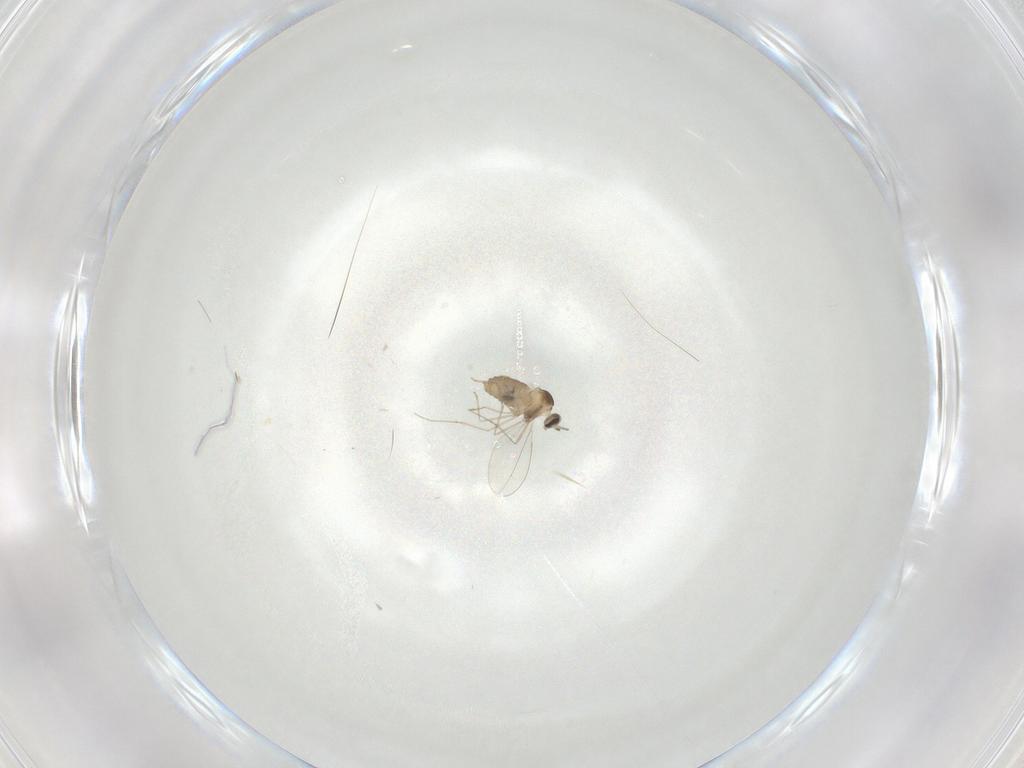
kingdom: Animalia
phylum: Arthropoda
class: Insecta
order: Diptera
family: Cecidomyiidae
